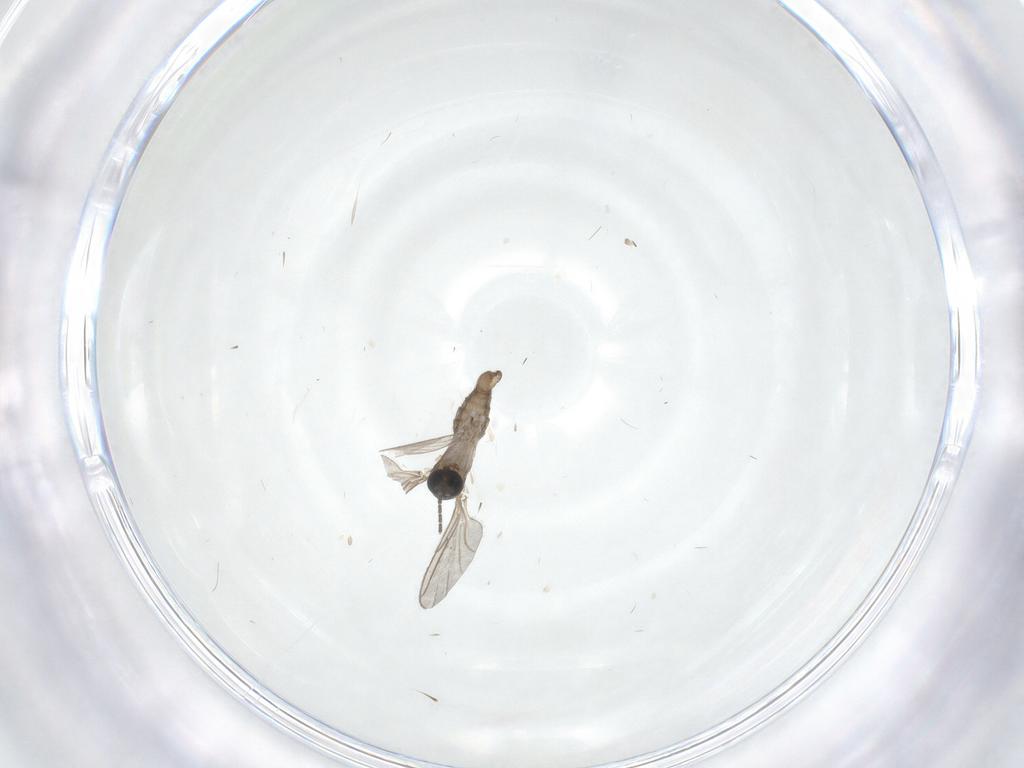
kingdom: Animalia
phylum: Arthropoda
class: Insecta
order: Diptera
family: Sciaridae
